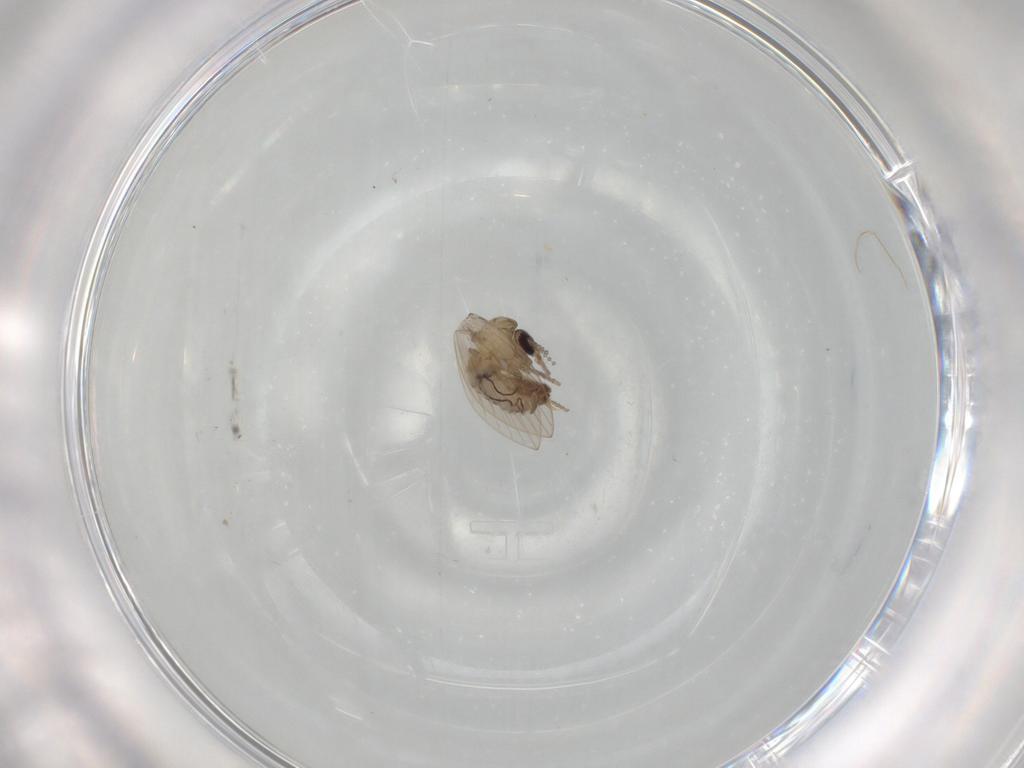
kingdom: Animalia
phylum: Arthropoda
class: Insecta
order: Diptera
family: Psychodidae
